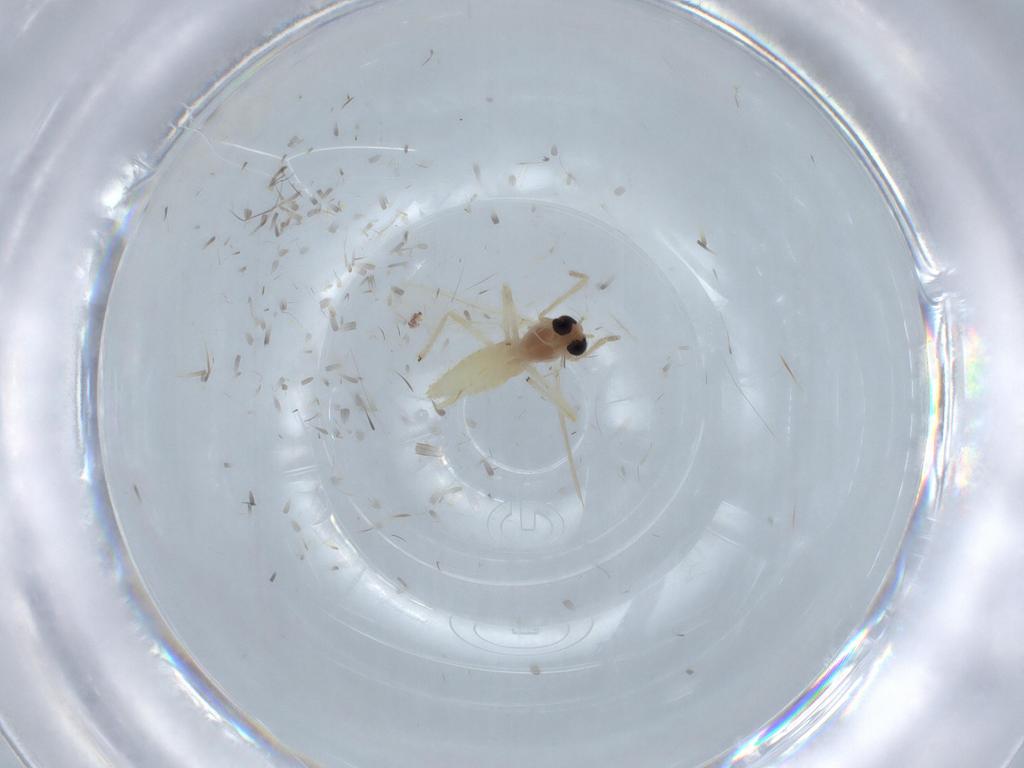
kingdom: Animalia
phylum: Arthropoda
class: Insecta
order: Diptera
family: Chironomidae
